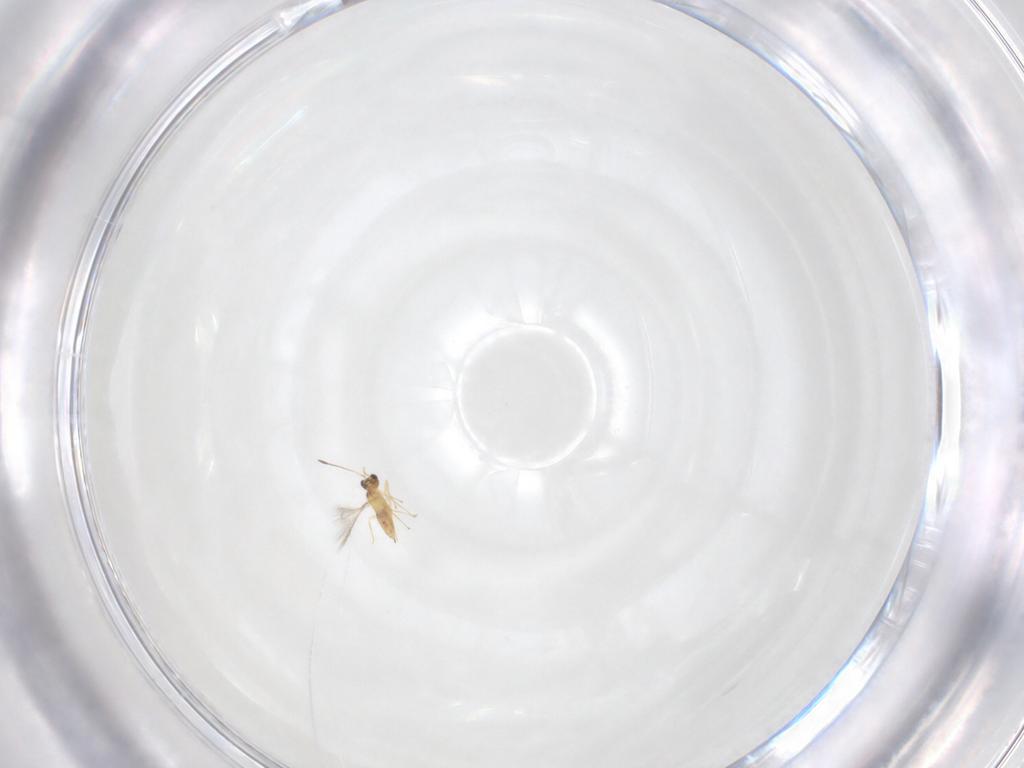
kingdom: Animalia
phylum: Arthropoda
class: Insecta
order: Hymenoptera
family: Mymaridae
